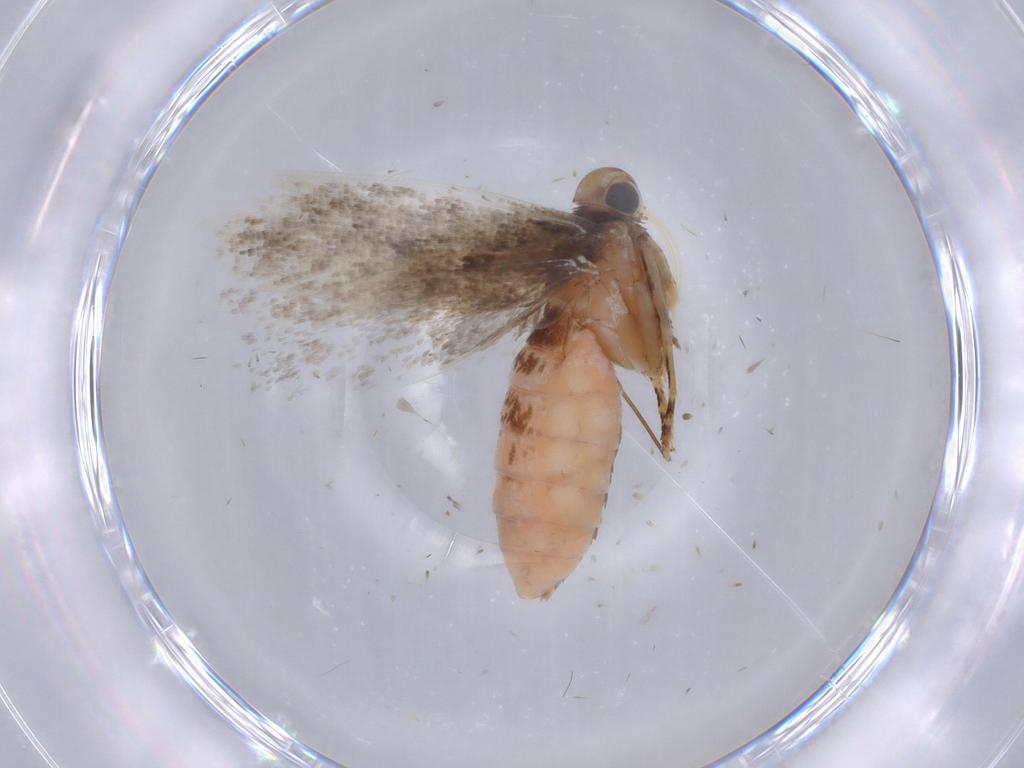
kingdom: Animalia
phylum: Arthropoda
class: Insecta
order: Lepidoptera
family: Gelechiidae
